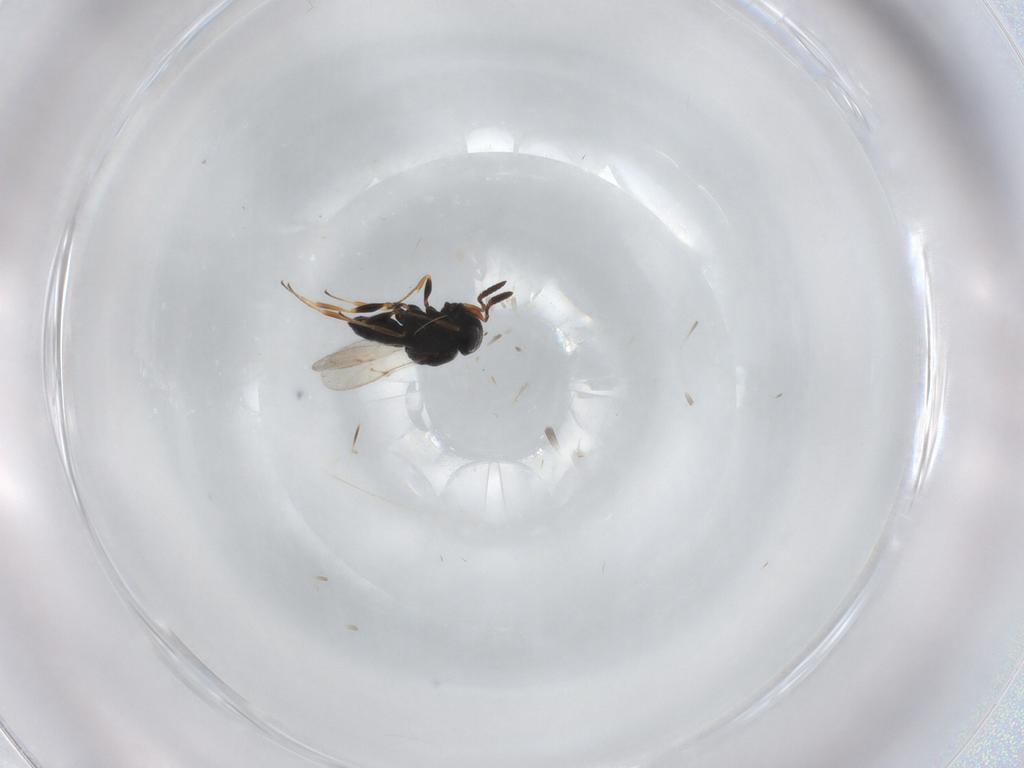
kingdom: Animalia
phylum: Arthropoda
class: Insecta
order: Coleoptera
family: Curculionidae
